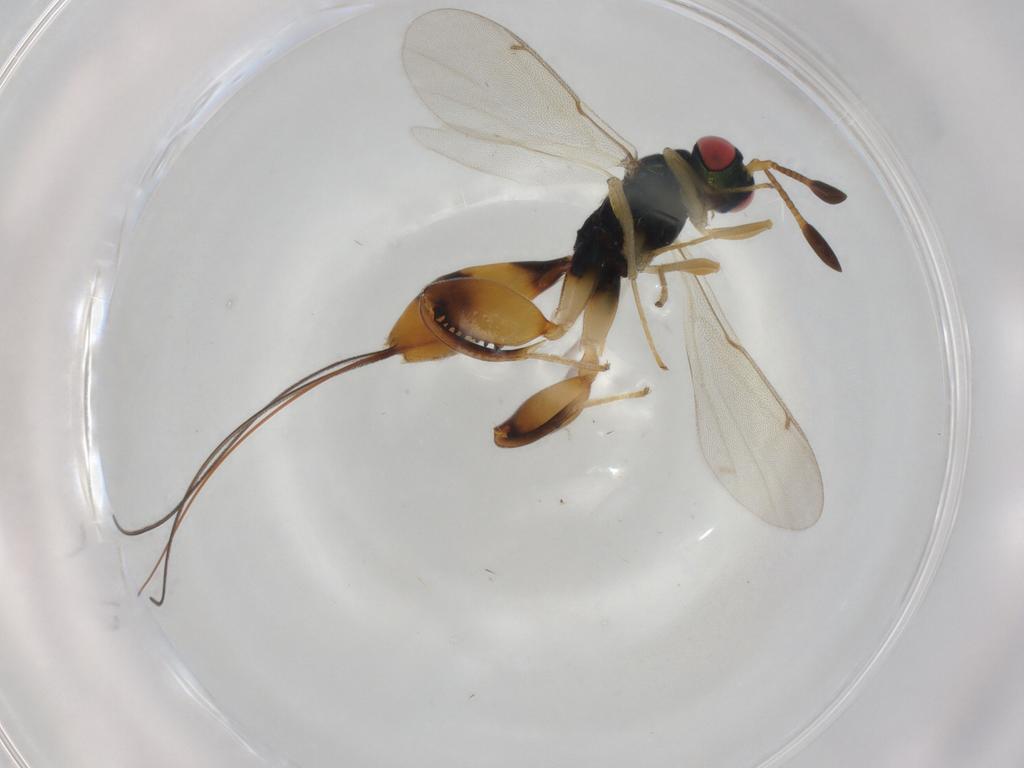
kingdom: Animalia
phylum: Arthropoda
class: Insecta
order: Hymenoptera
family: Torymidae
